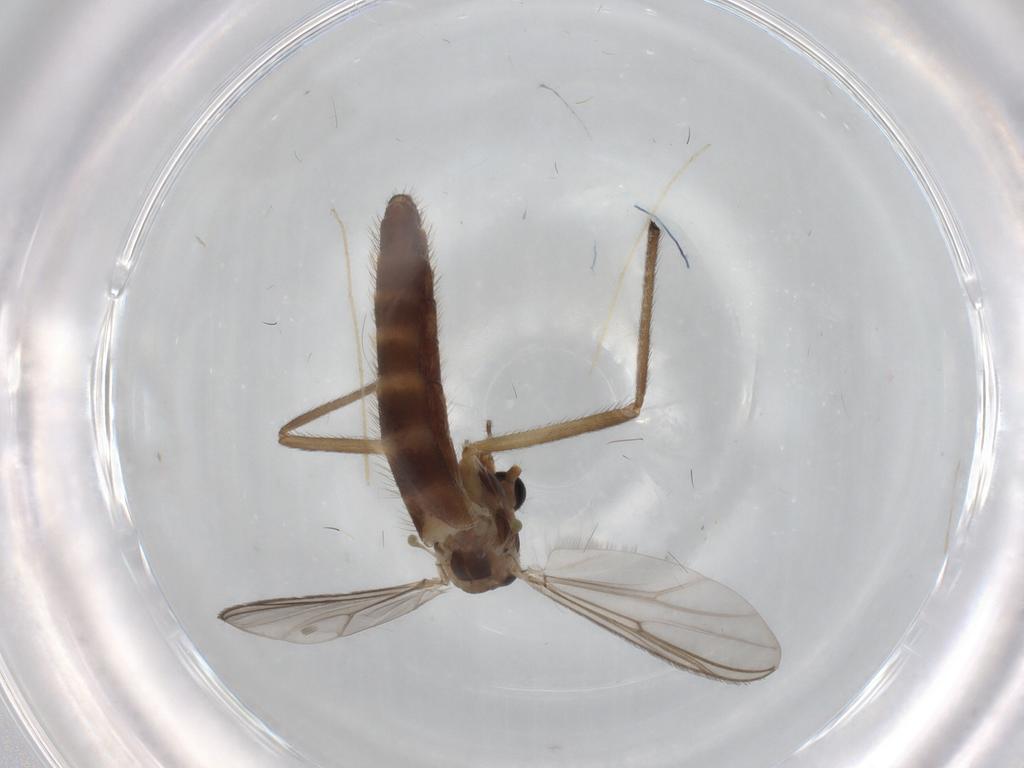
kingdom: Animalia
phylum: Arthropoda
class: Insecta
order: Diptera
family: Chironomidae
